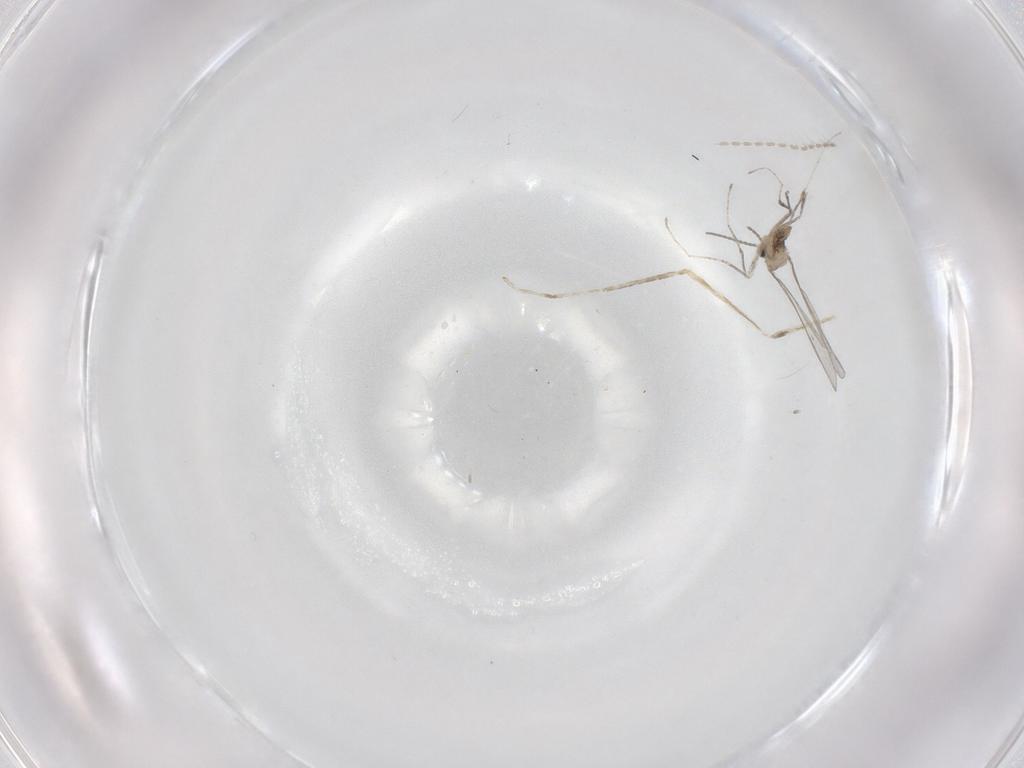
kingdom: Animalia
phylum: Arthropoda
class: Insecta
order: Diptera
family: Cecidomyiidae
